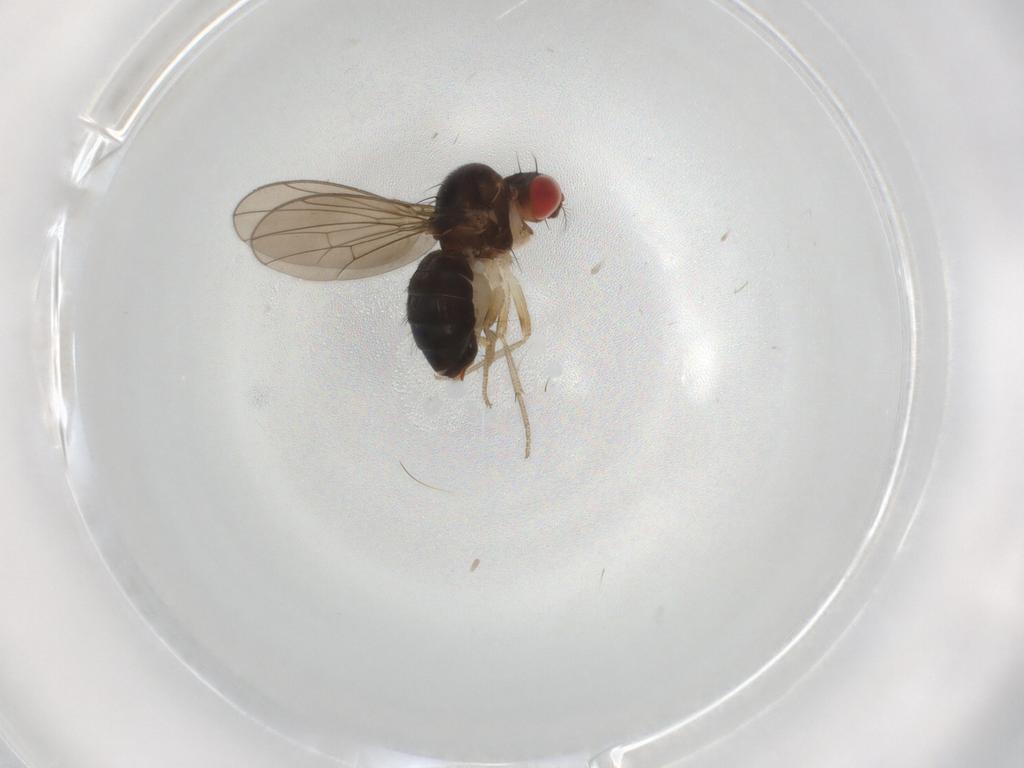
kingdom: Animalia
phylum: Arthropoda
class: Insecta
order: Diptera
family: Drosophilidae
